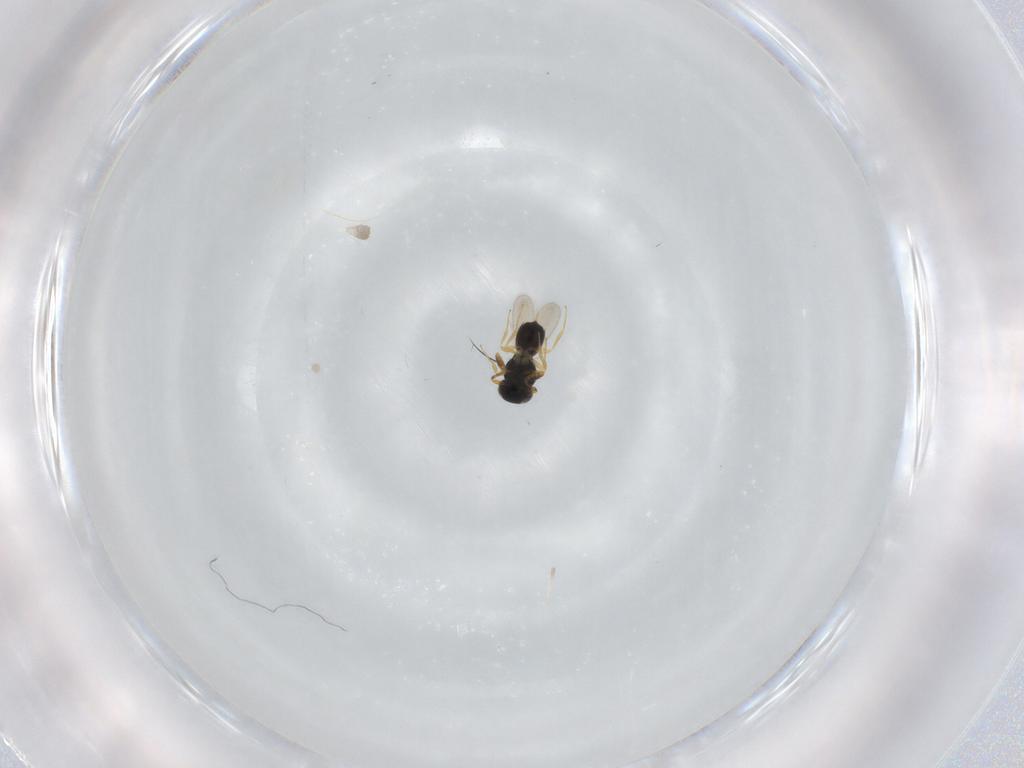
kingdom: Animalia
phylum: Arthropoda
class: Insecta
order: Hymenoptera
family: Scelionidae
